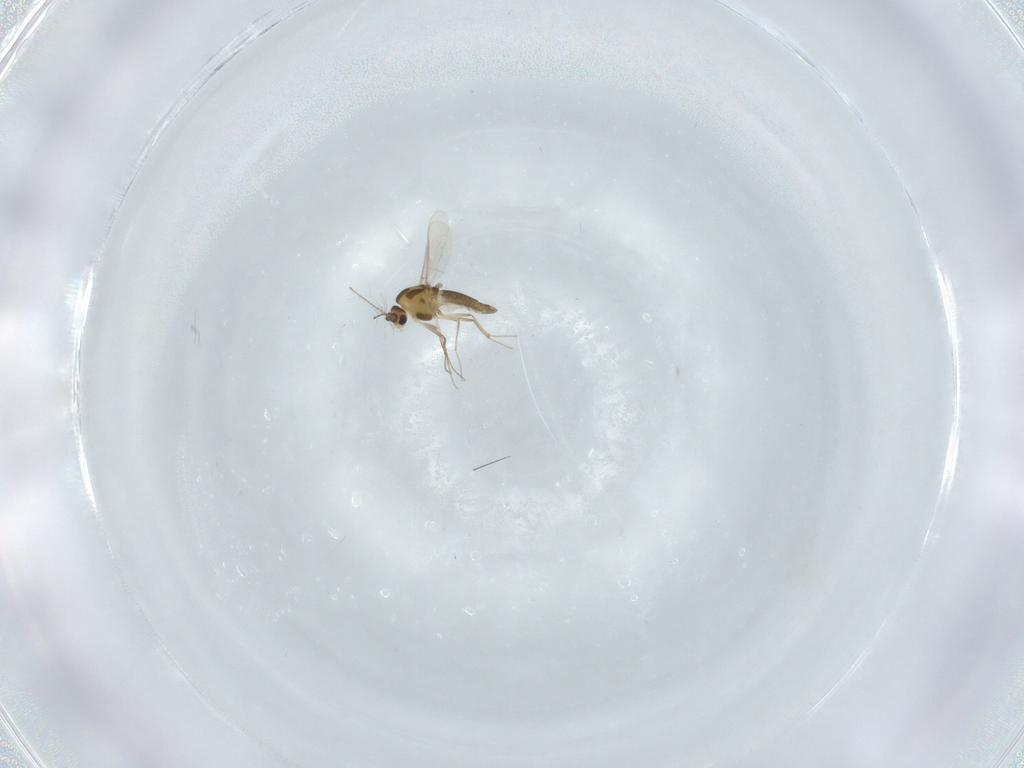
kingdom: Animalia
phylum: Arthropoda
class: Insecta
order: Diptera
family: Chironomidae
